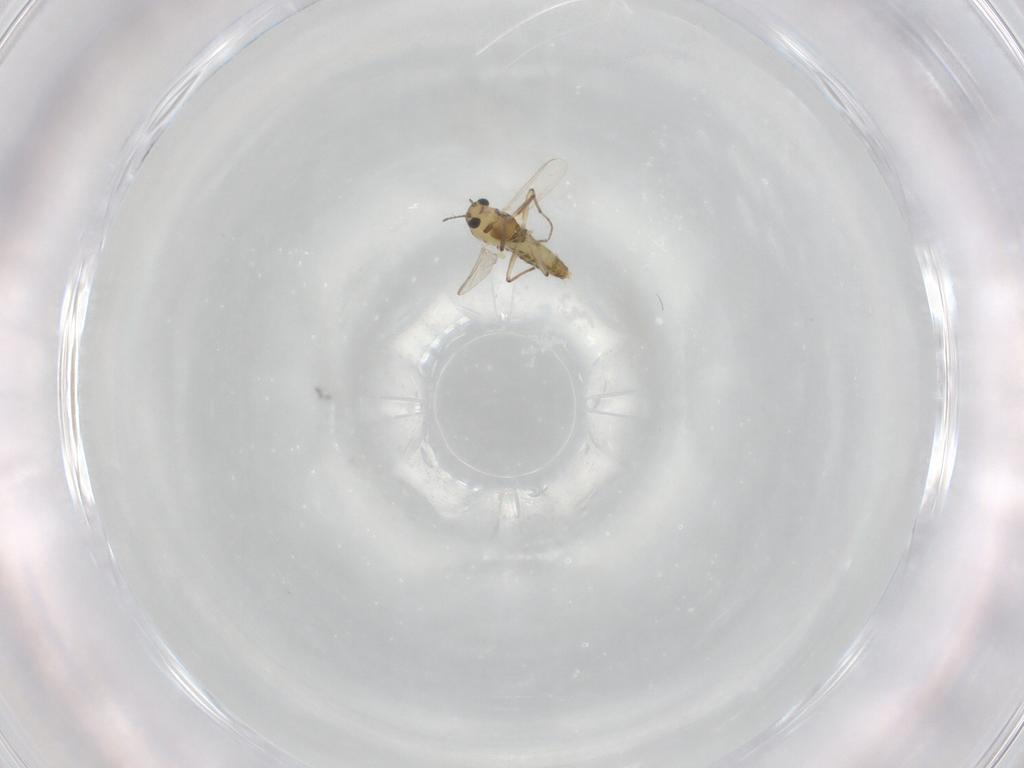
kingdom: Animalia
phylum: Arthropoda
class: Insecta
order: Diptera
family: Chironomidae
